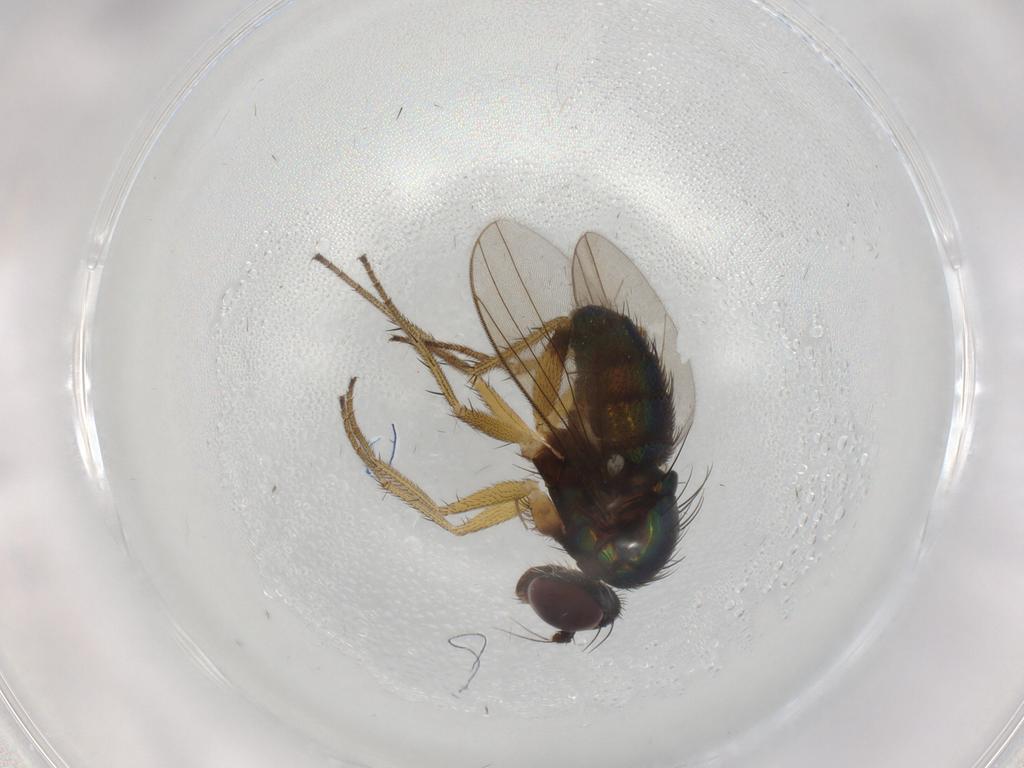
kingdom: Animalia
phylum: Arthropoda
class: Insecta
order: Diptera
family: Dolichopodidae
